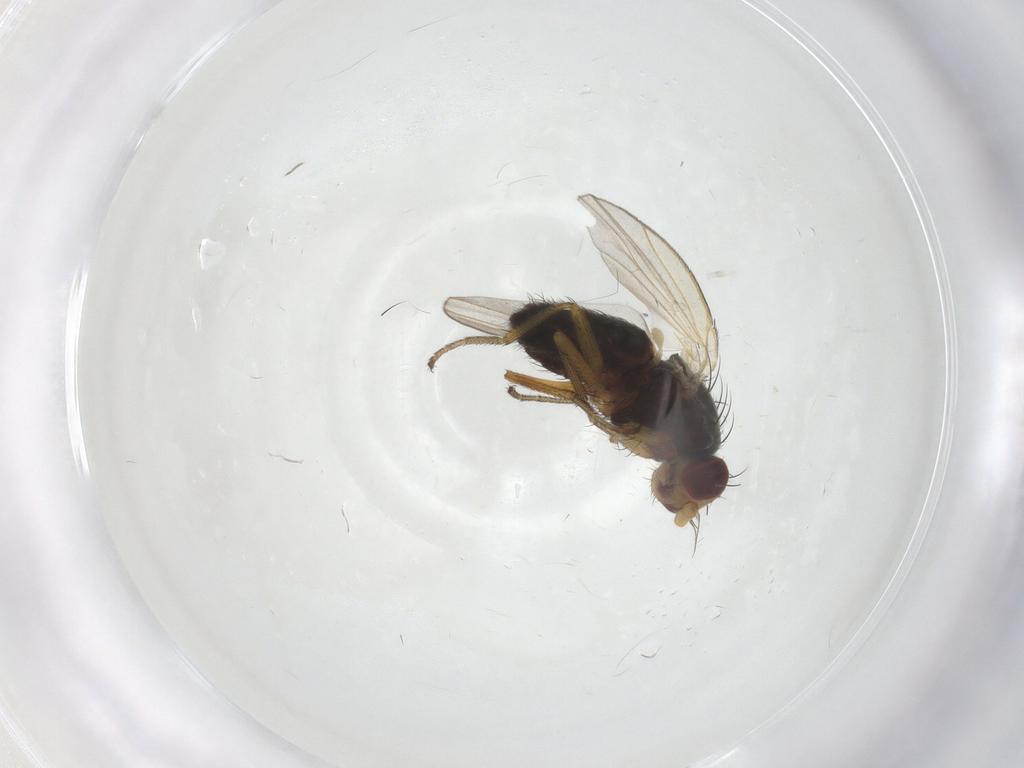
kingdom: Animalia
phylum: Arthropoda
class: Insecta
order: Diptera
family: Heleomyzidae
